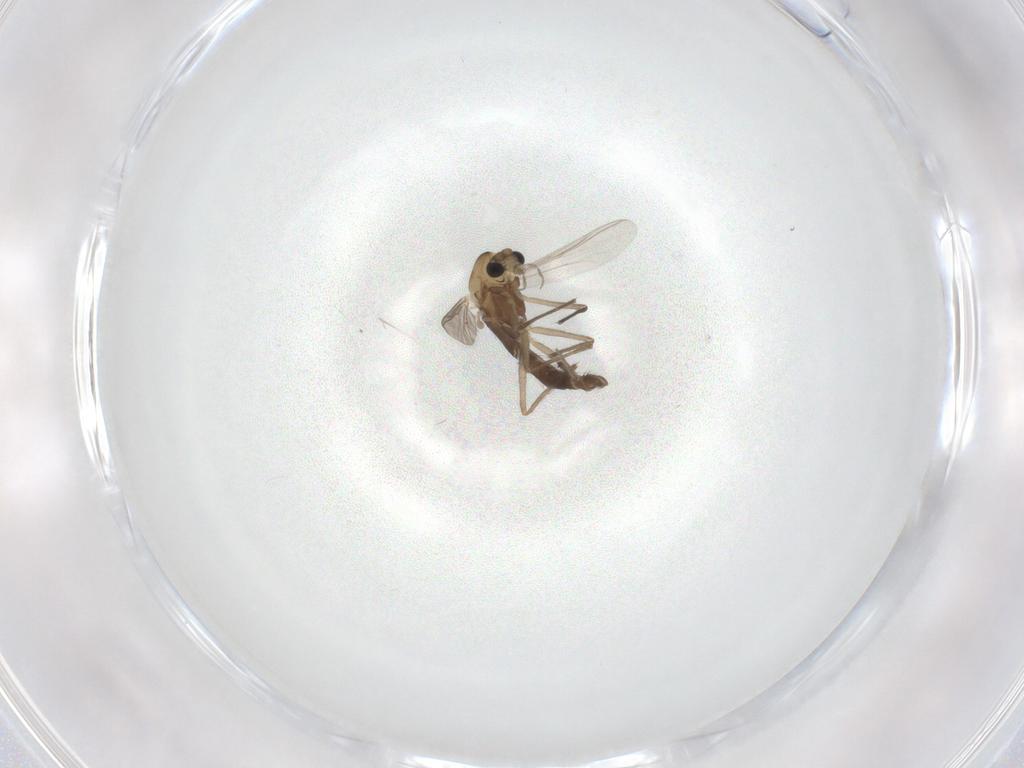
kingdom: Animalia
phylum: Arthropoda
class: Insecta
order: Diptera
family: Chironomidae
